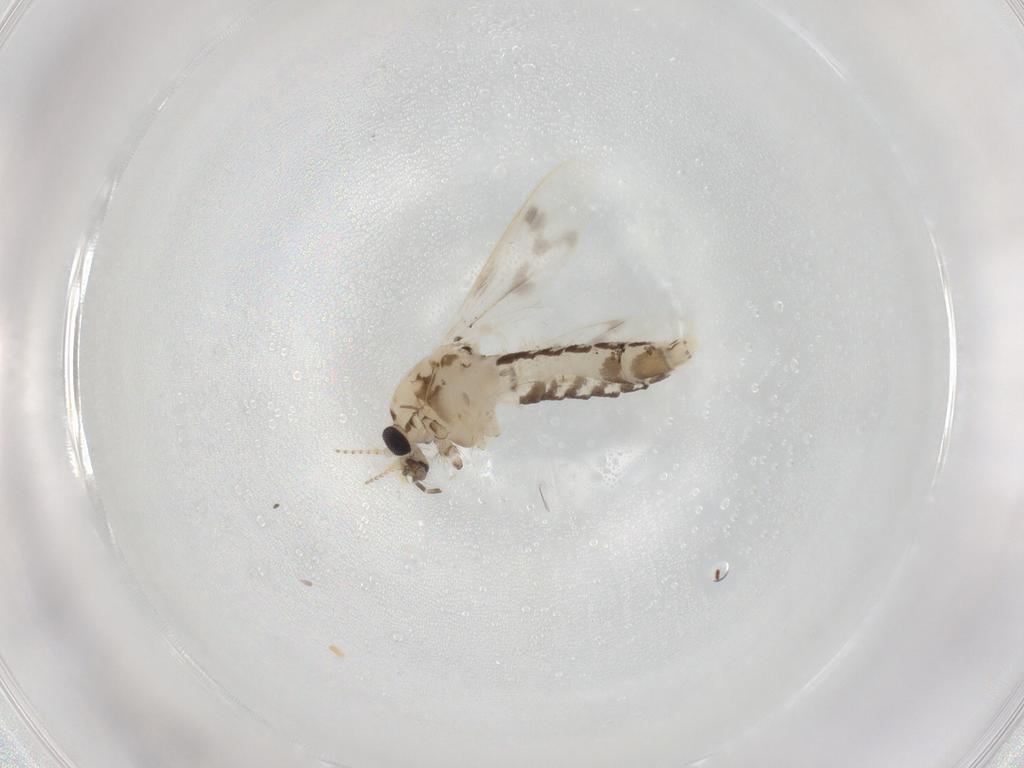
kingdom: Animalia
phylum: Arthropoda
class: Insecta
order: Diptera
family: Corethrellidae
